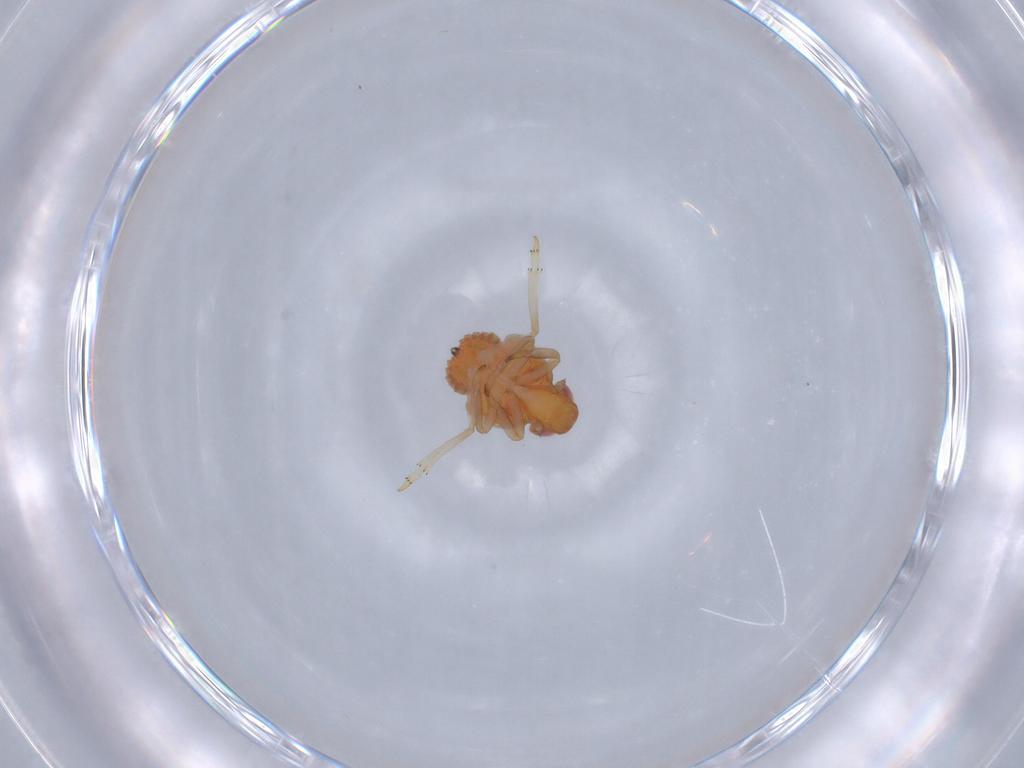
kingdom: Animalia
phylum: Arthropoda
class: Insecta
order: Hemiptera
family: Fulgoroidea_incertae_sedis
